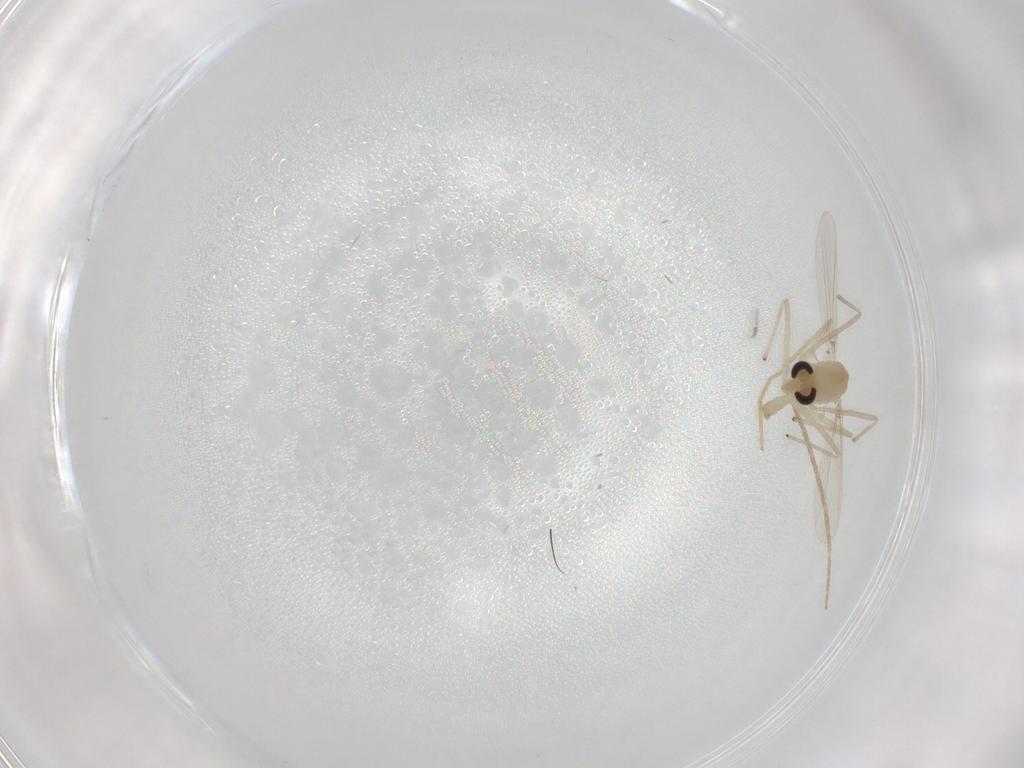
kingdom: Animalia
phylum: Arthropoda
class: Insecta
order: Diptera
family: Chironomidae
